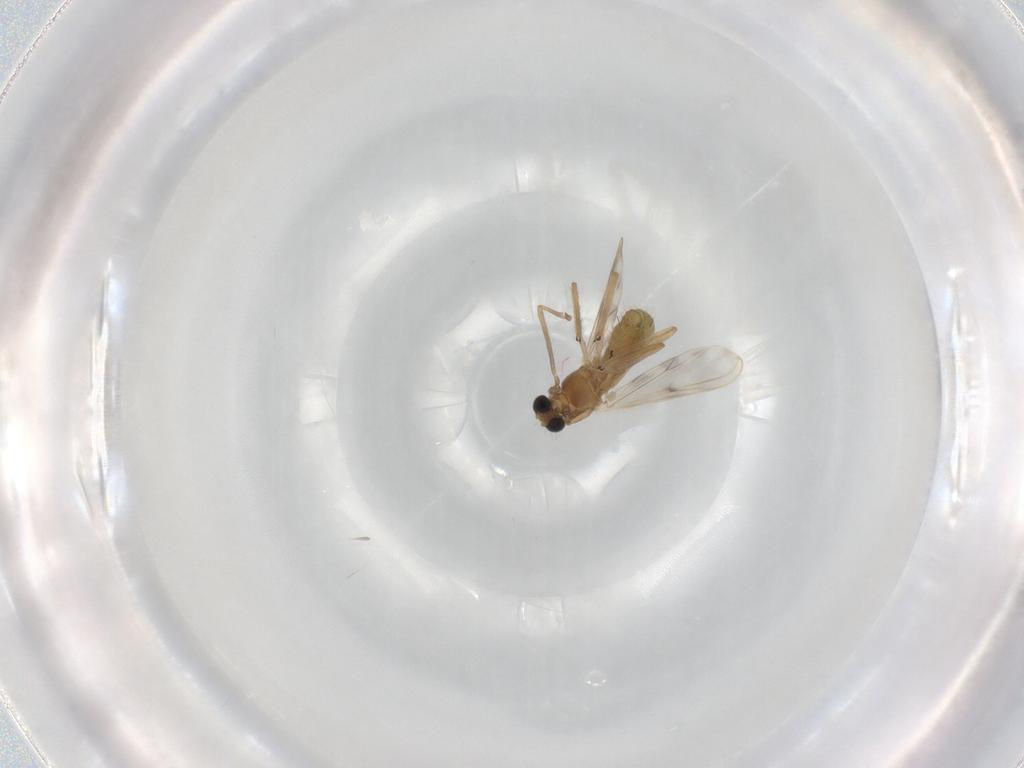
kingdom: Animalia
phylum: Arthropoda
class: Insecta
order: Diptera
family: Chironomidae
